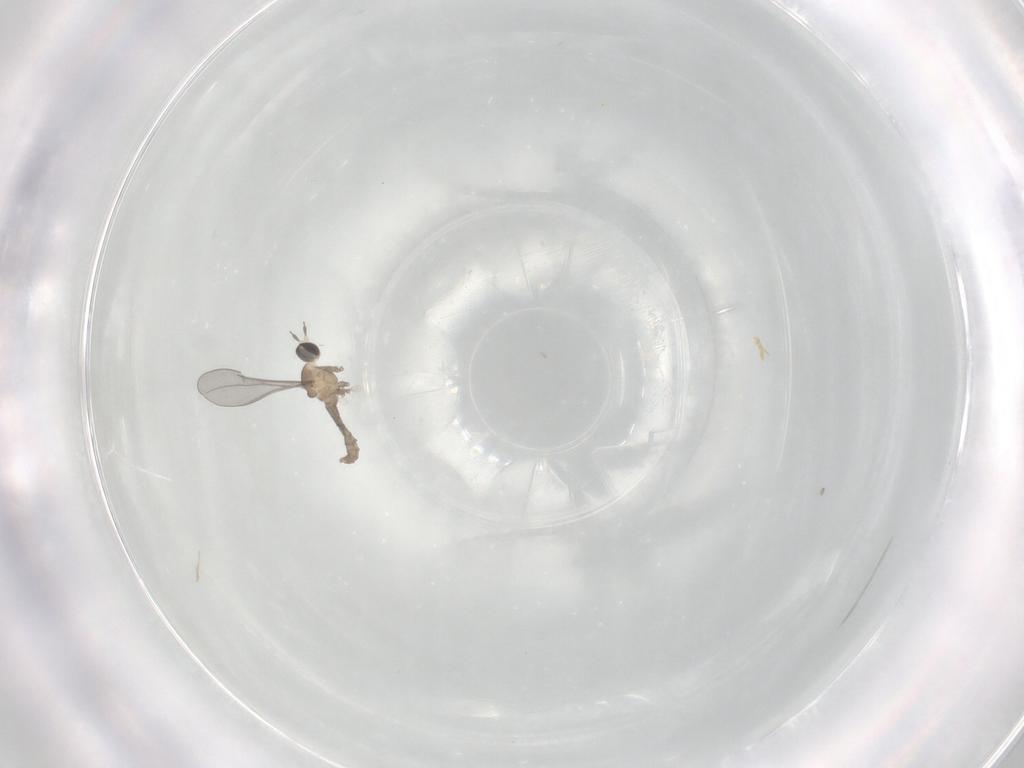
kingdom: Animalia
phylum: Arthropoda
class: Insecta
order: Diptera
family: Cecidomyiidae
